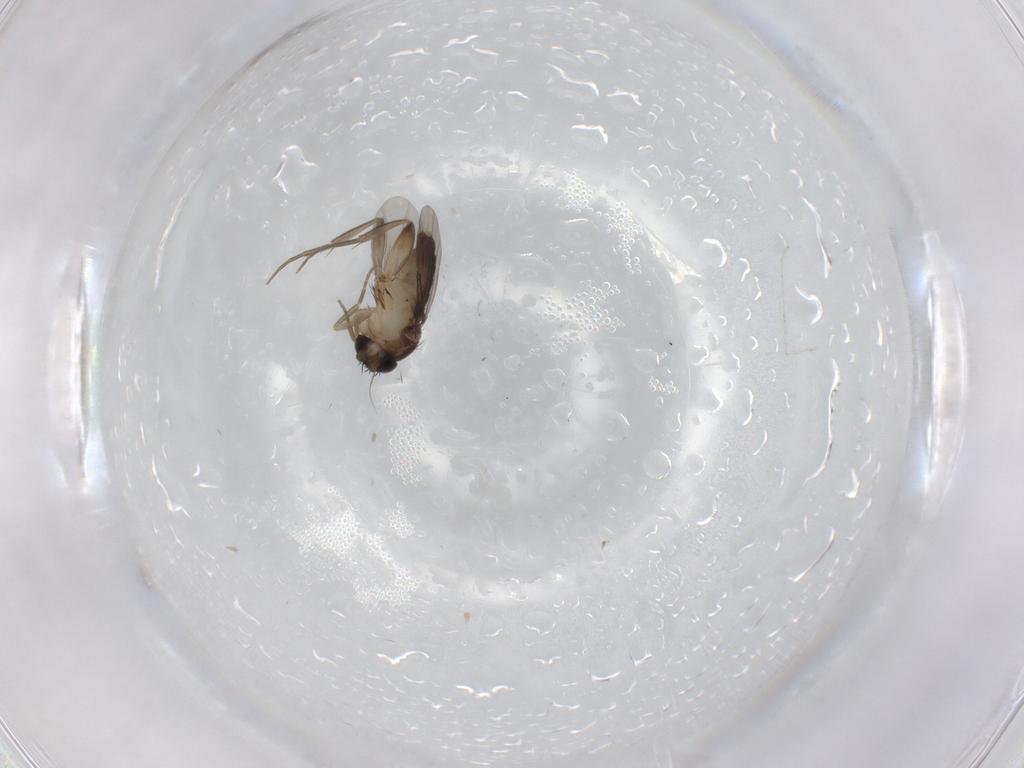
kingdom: Animalia
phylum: Arthropoda
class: Insecta
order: Diptera
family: Phoridae
